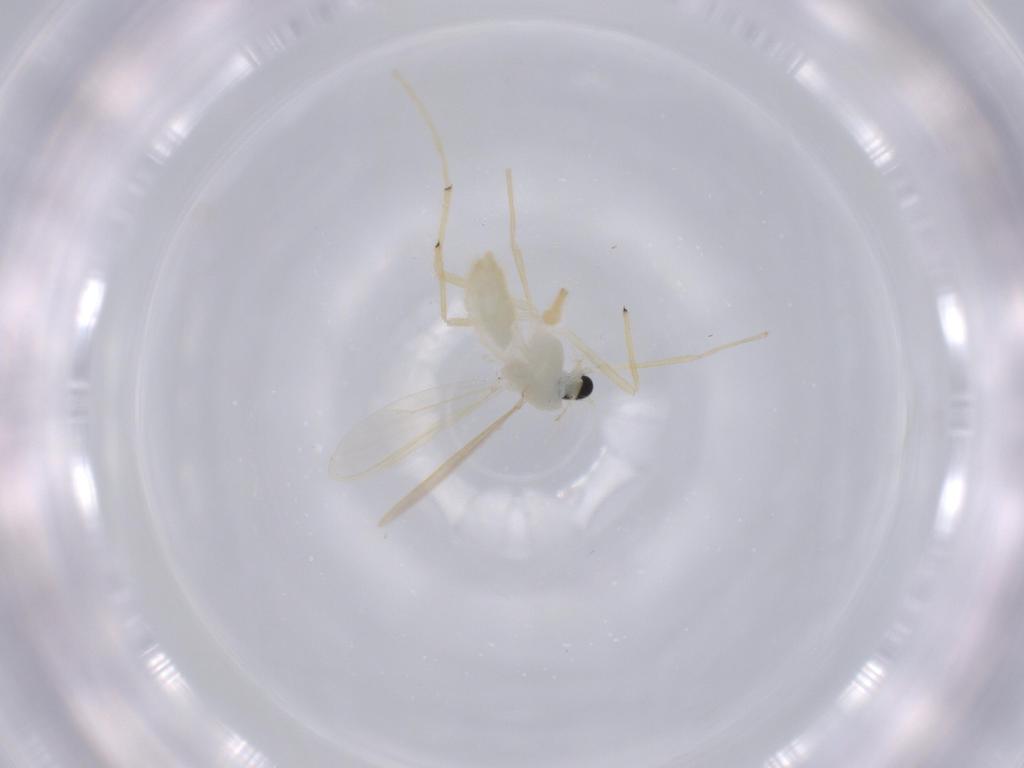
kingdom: Animalia
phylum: Arthropoda
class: Insecta
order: Diptera
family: Chironomidae
